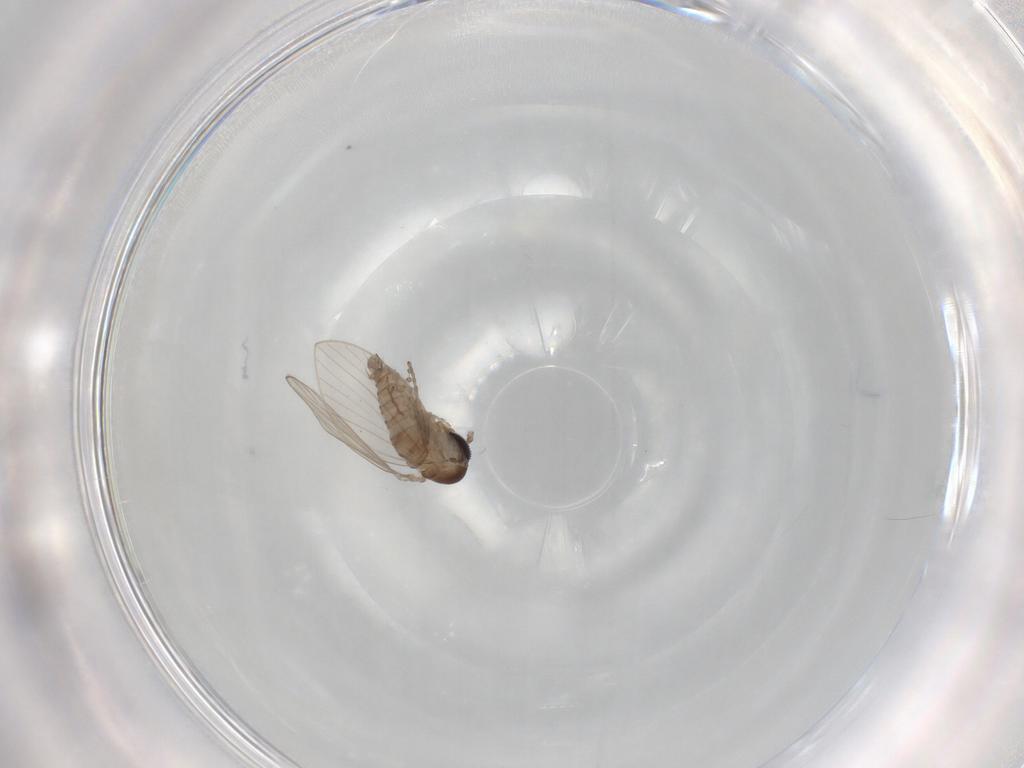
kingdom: Animalia
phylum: Arthropoda
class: Insecta
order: Diptera
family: Psychodidae
